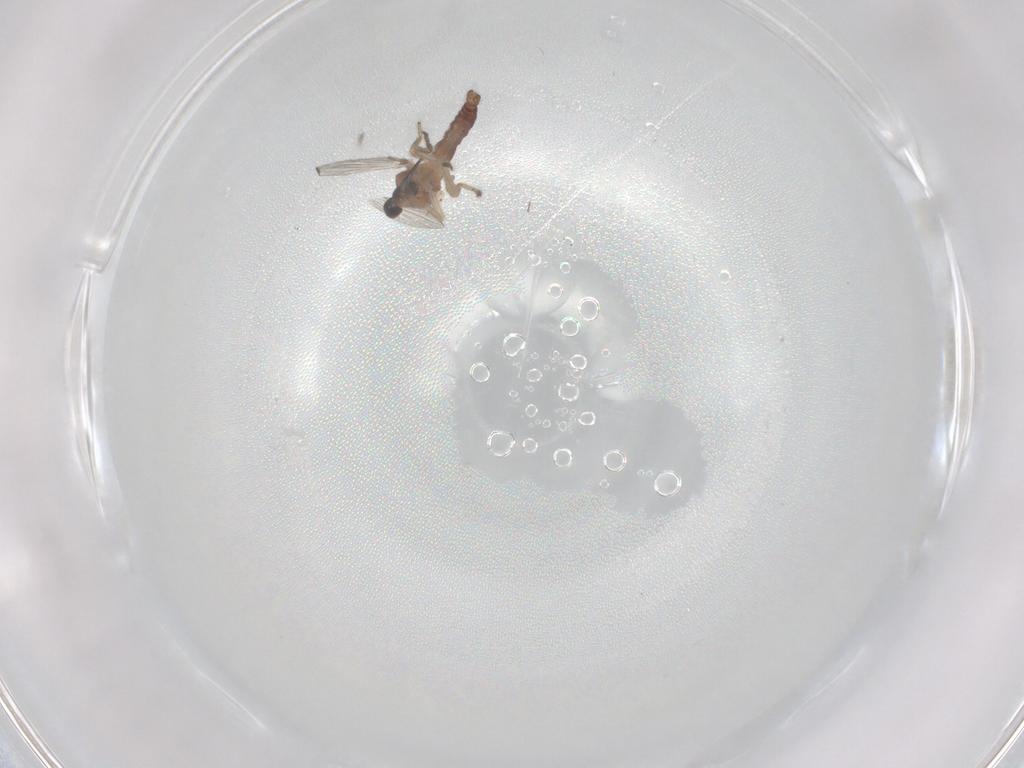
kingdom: Animalia
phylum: Arthropoda
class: Insecta
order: Diptera
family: Ceratopogonidae
